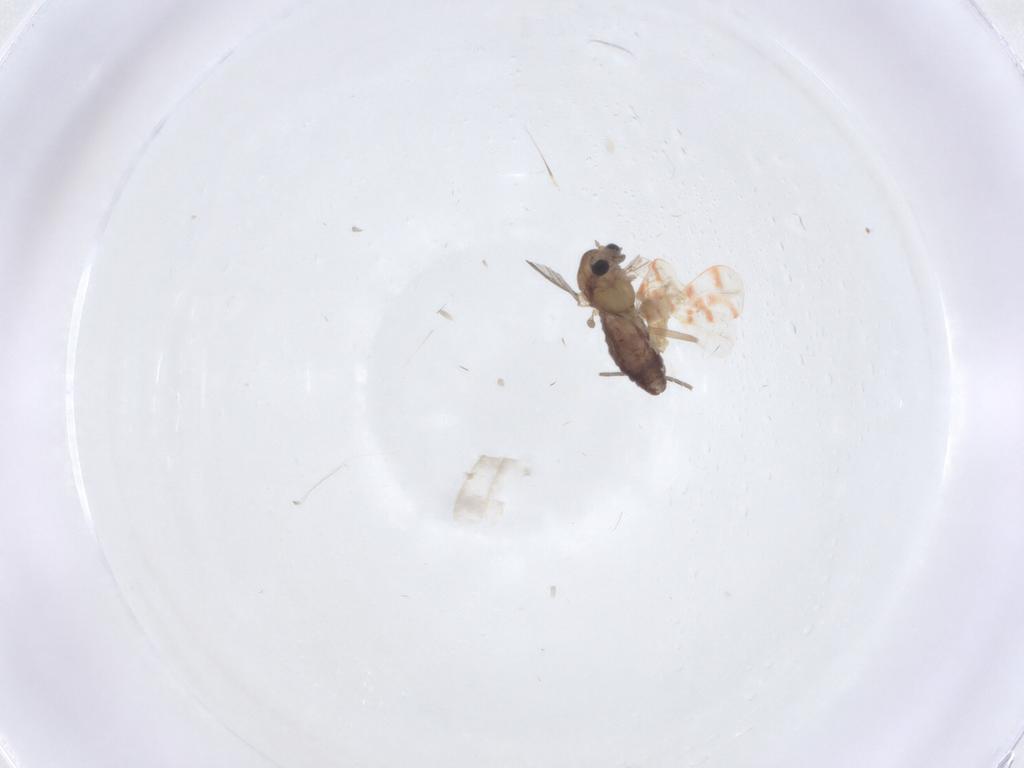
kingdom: Animalia
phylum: Arthropoda
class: Insecta
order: Diptera
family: Chironomidae
